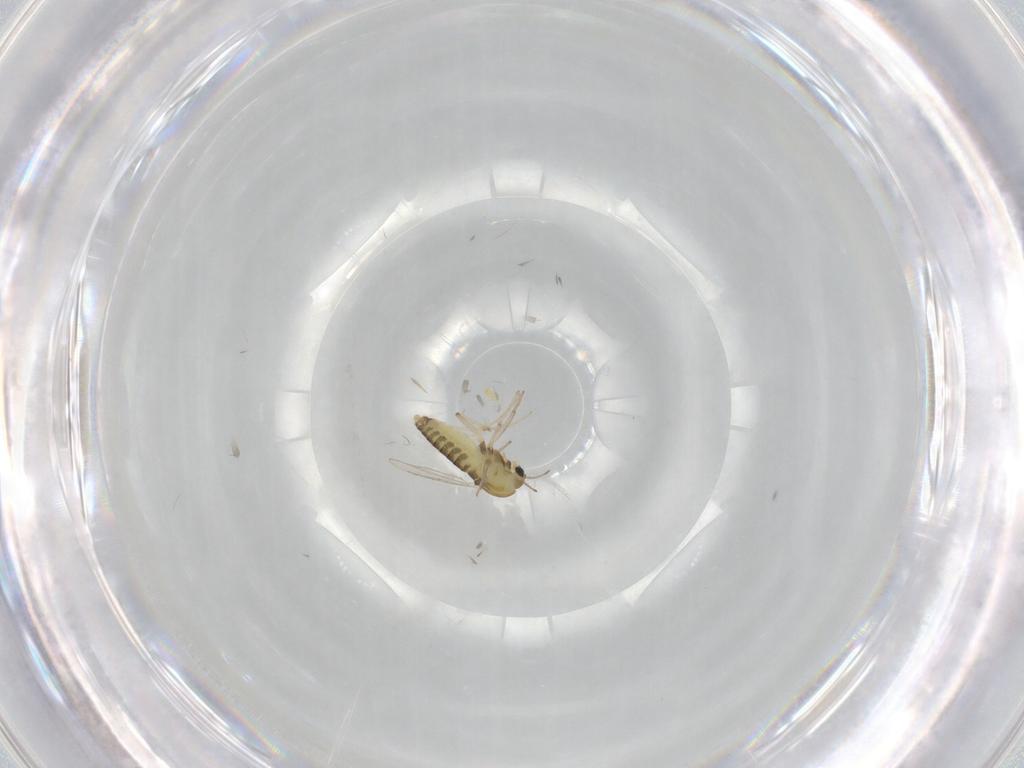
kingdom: Animalia
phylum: Arthropoda
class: Insecta
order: Diptera
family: Chironomidae
